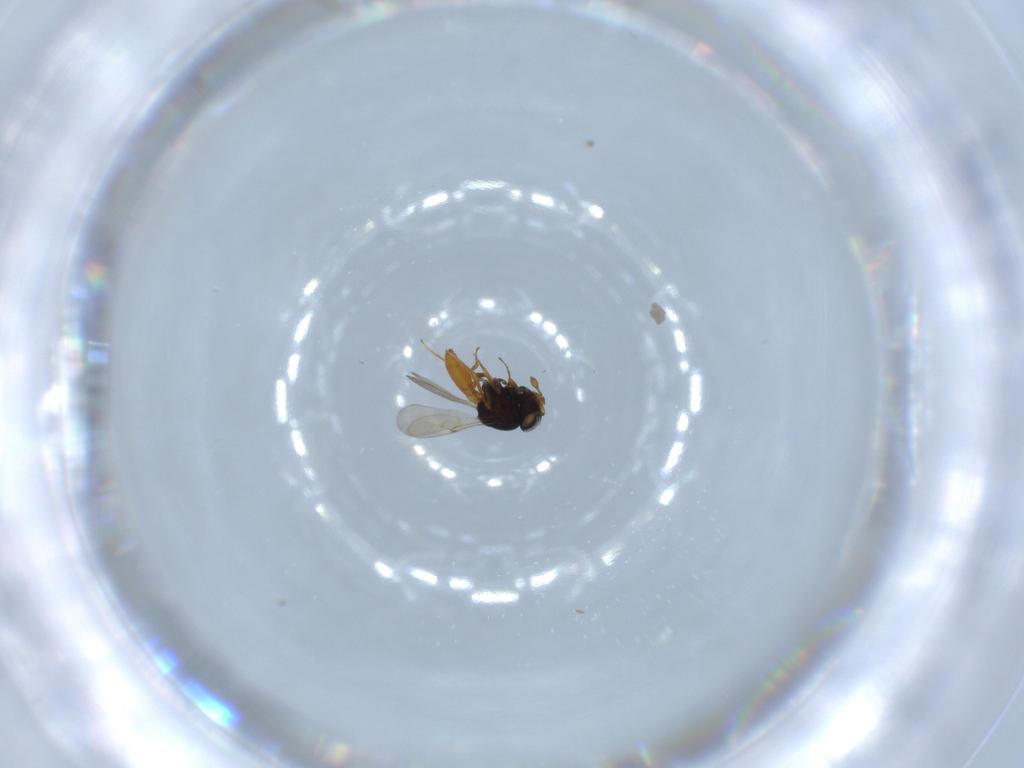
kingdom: Animalia
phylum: Arthropoda
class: Insecta
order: Hymenoptera
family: Scelionidae
